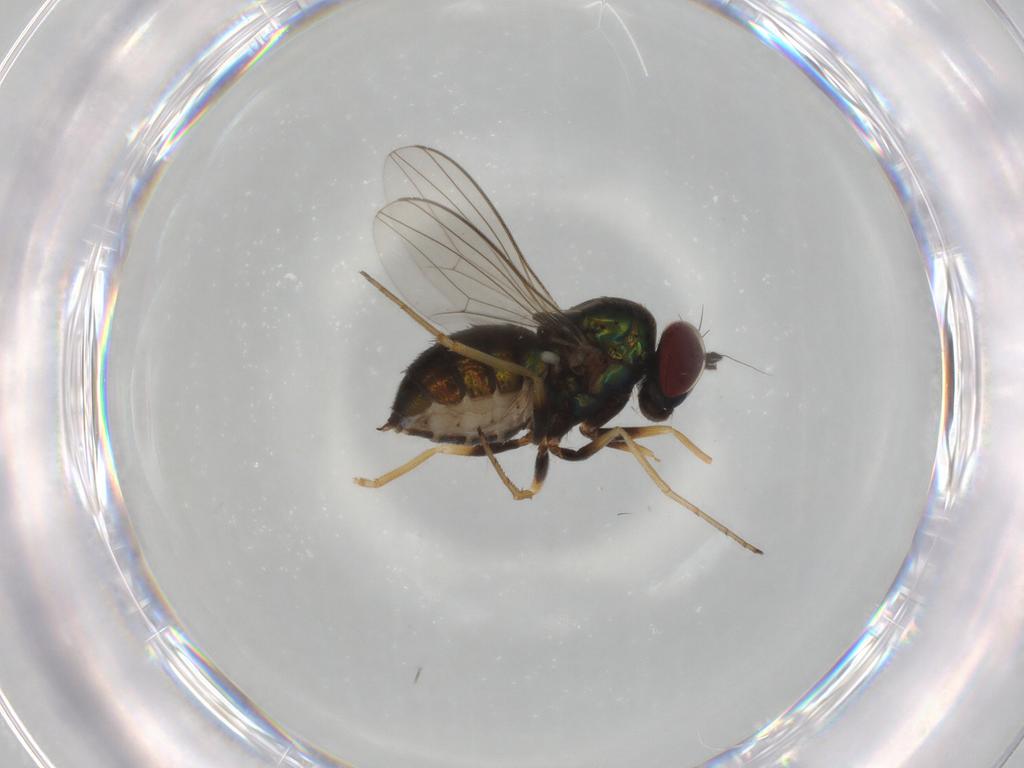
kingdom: Animalia
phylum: Arthropoda
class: Insecta
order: Diptera
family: Dolichopodidae
